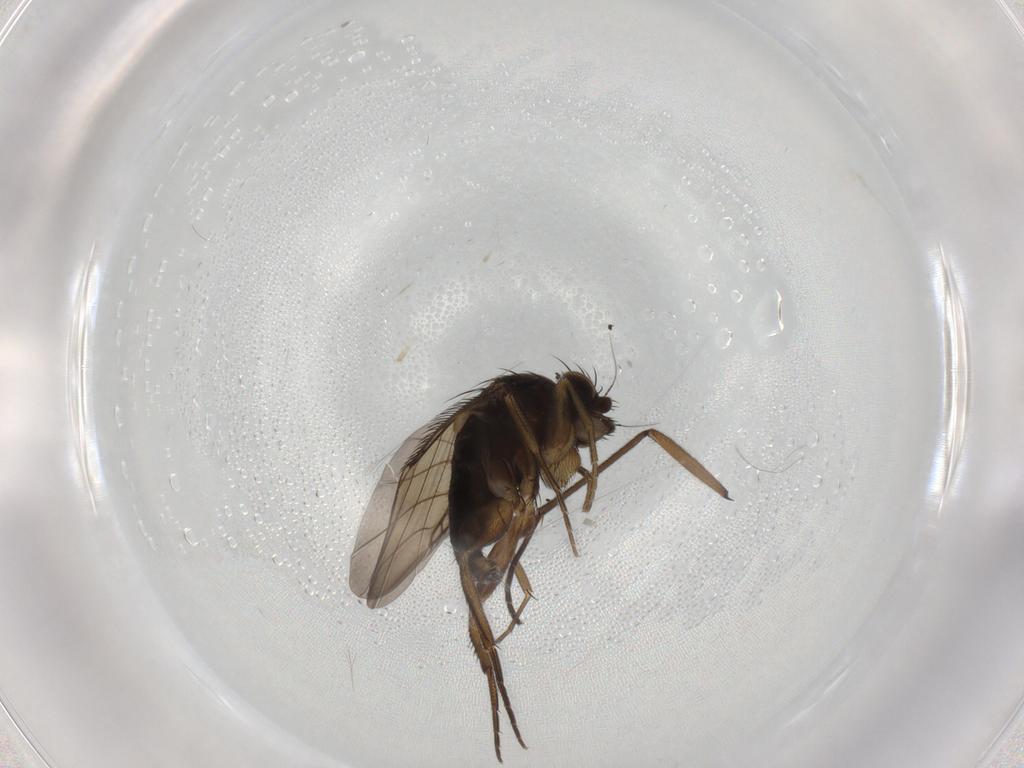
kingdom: Animalia
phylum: Arthropoda
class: Insecta
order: Diptera
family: Phoridae
